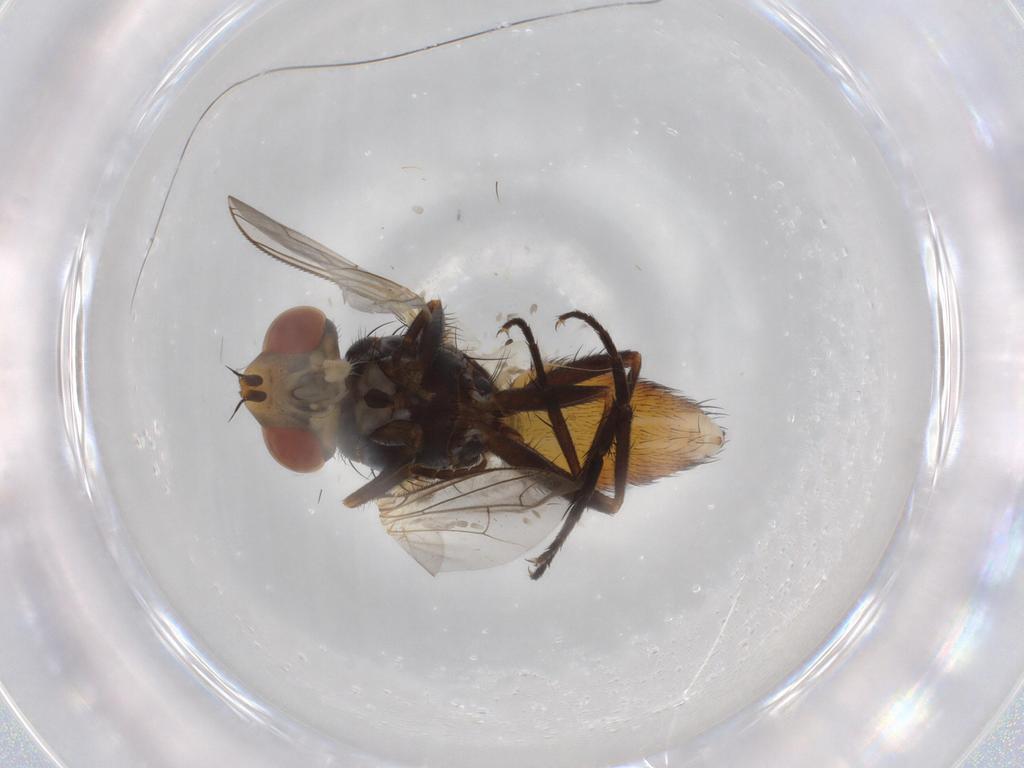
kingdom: Animalia
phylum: Arthropoda
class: Insecta
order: Diptera
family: Sarcophagidae
